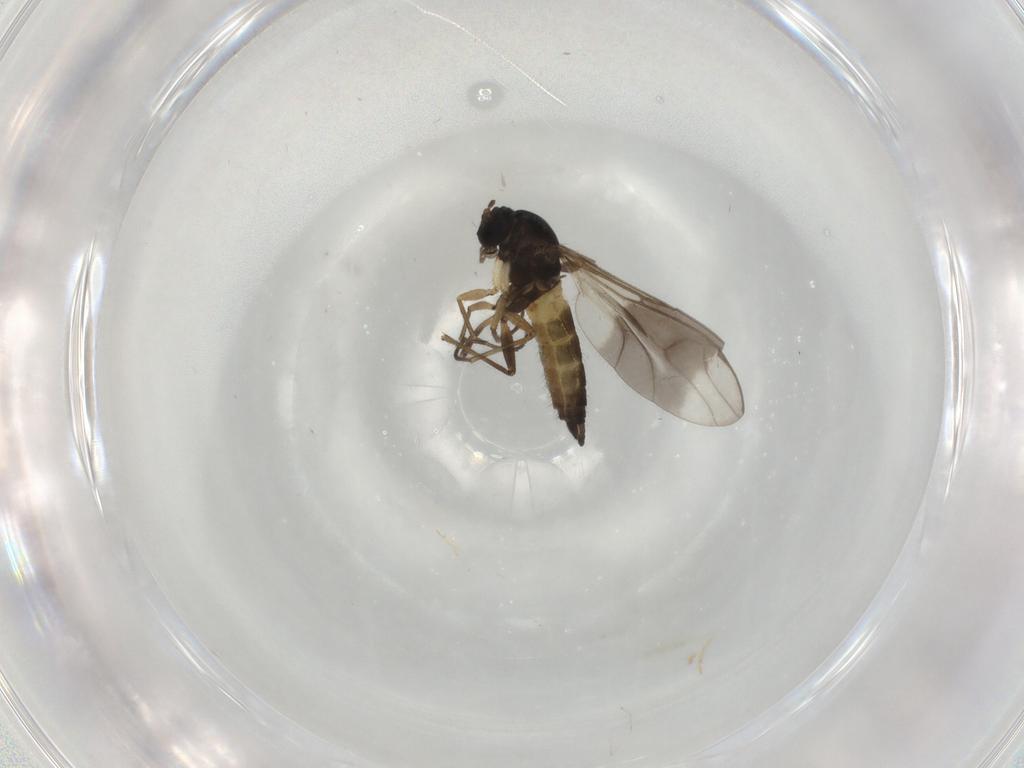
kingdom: Animalia
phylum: Arthropoda
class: Insecta
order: Diptera
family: Sciaridae
